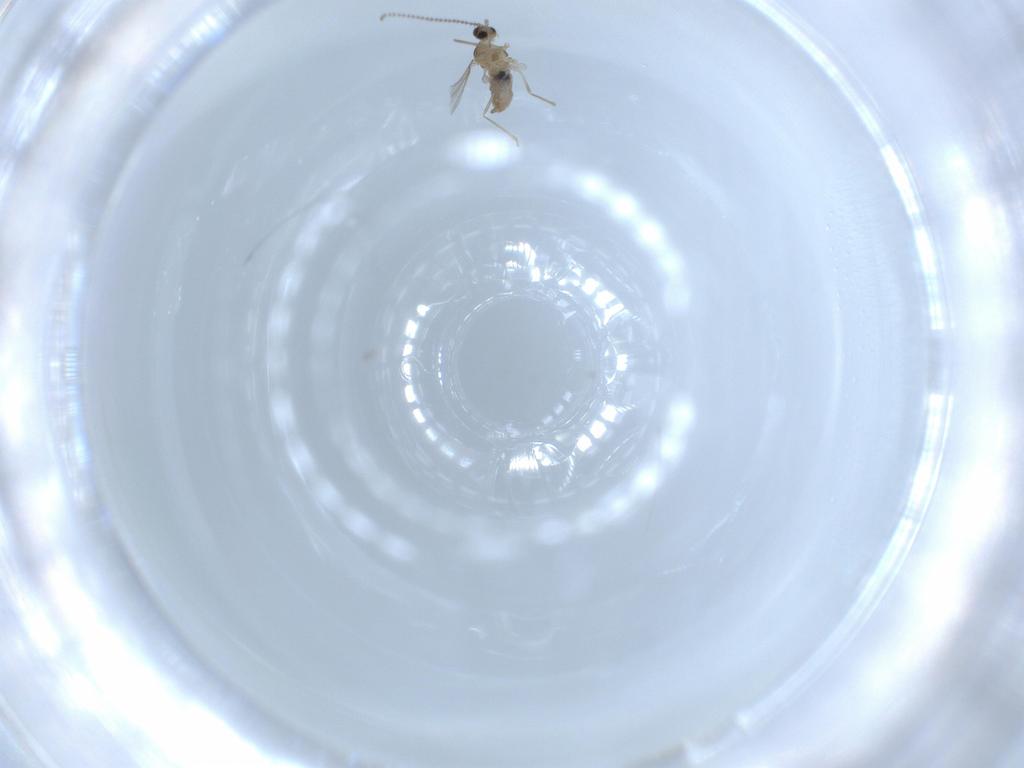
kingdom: Animalia
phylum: Arthropoda
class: Insecta
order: Diptera
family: Cecidomyiidae
